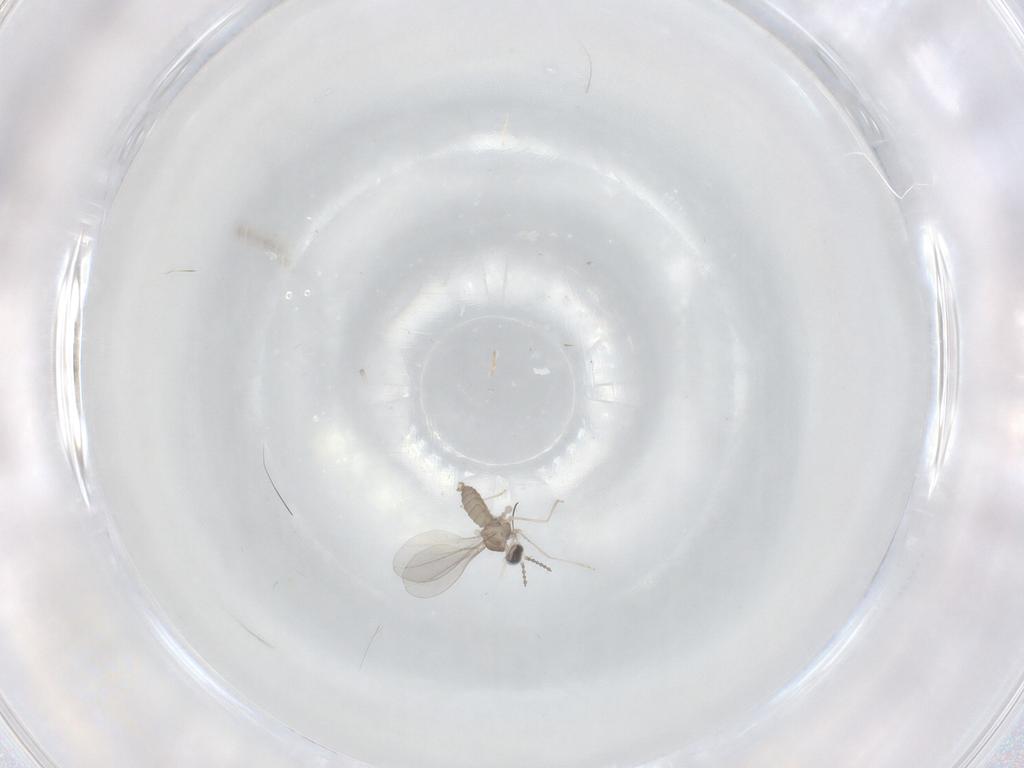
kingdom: Animalia
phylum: Arthropoda
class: Insecta
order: Diptera
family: Cecidomyiidae
